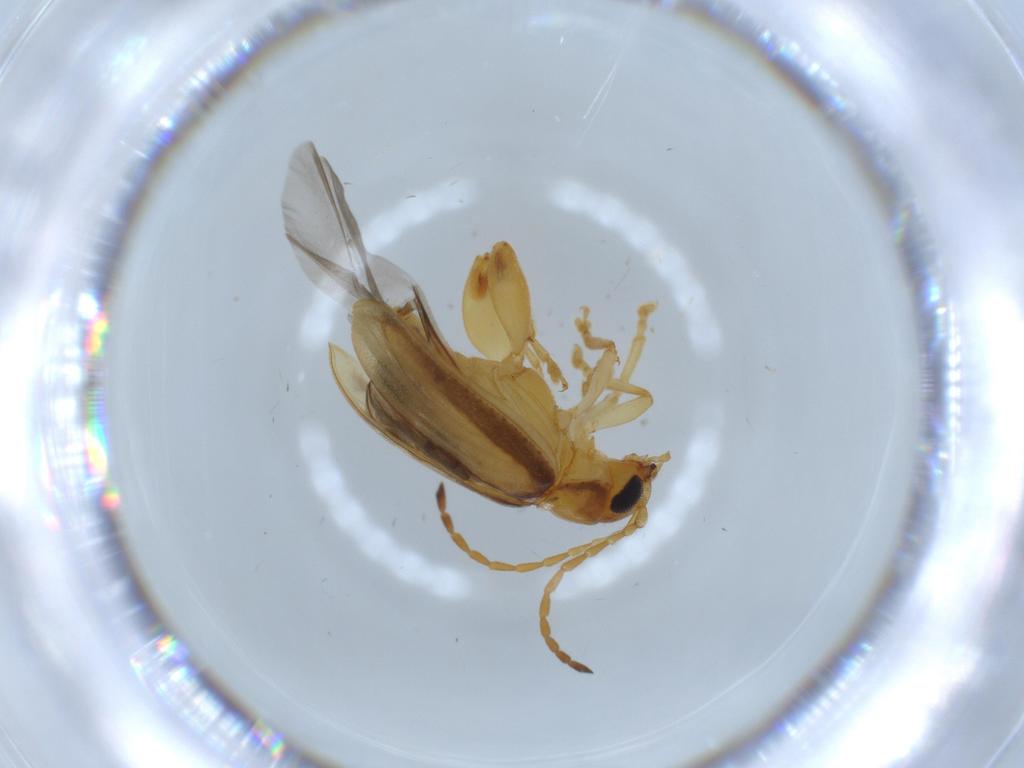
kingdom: Animalia
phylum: Arthropoda
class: Insecta
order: Coleoptera
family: Chrysomelidae
